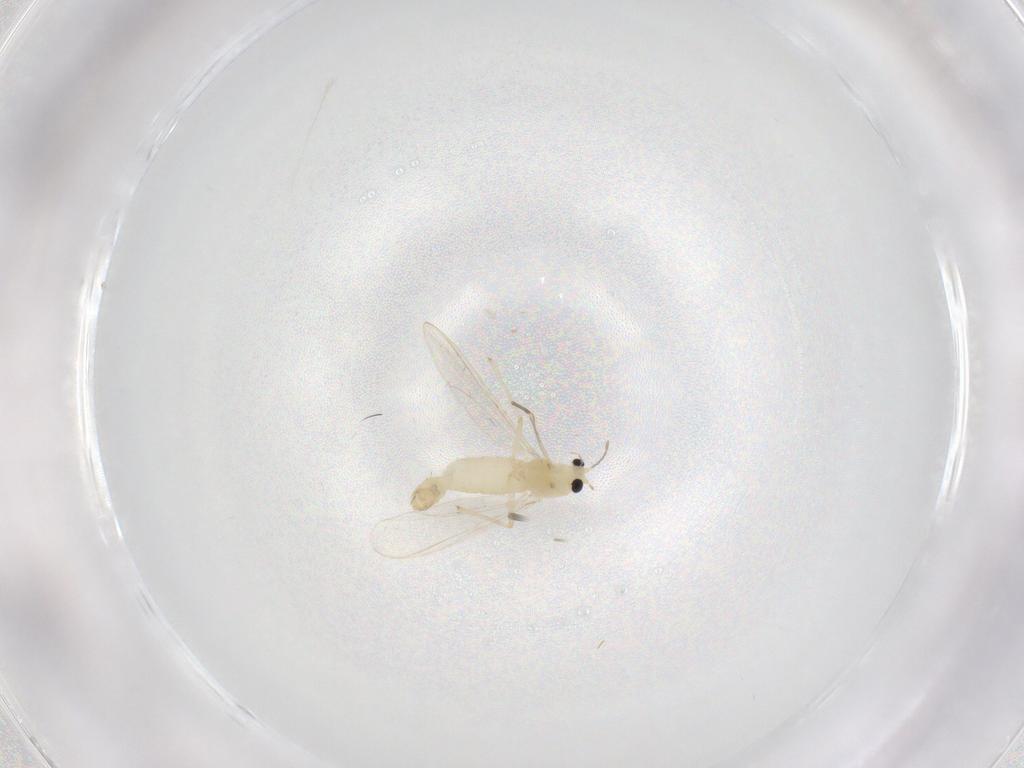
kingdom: Animalia
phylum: Arthropoda
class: Insecta
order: Diptera
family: Chironomidae
